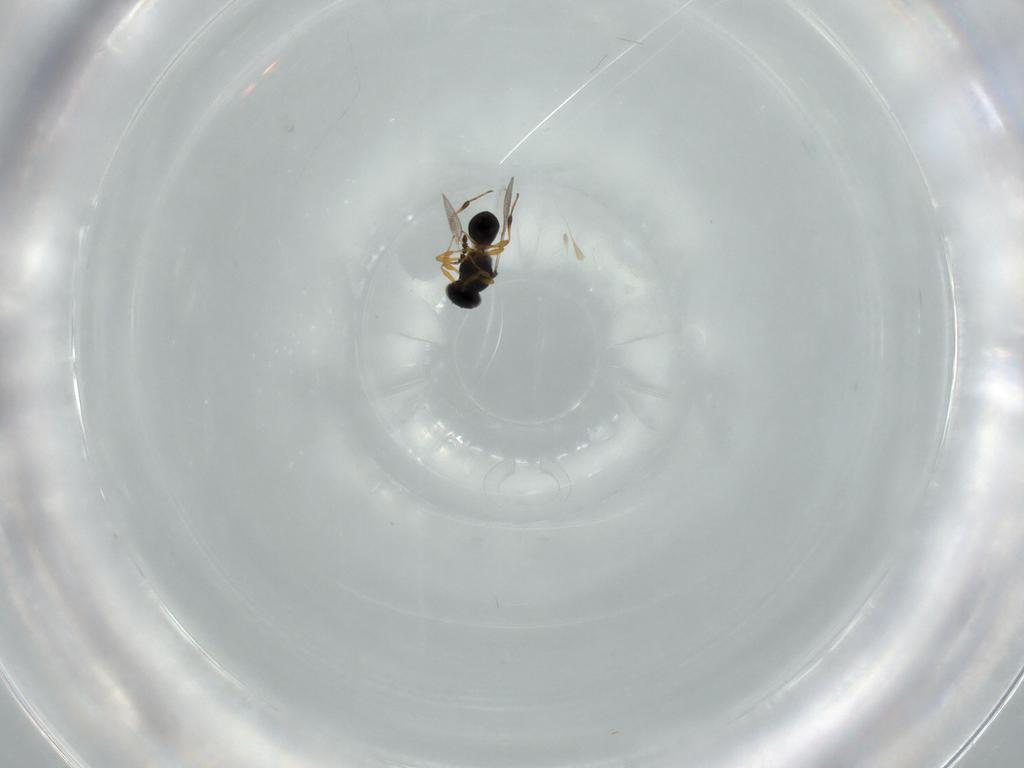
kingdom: Animalia
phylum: Arthropoda
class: Insecta
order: Hymenoptera
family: Platygastridae
